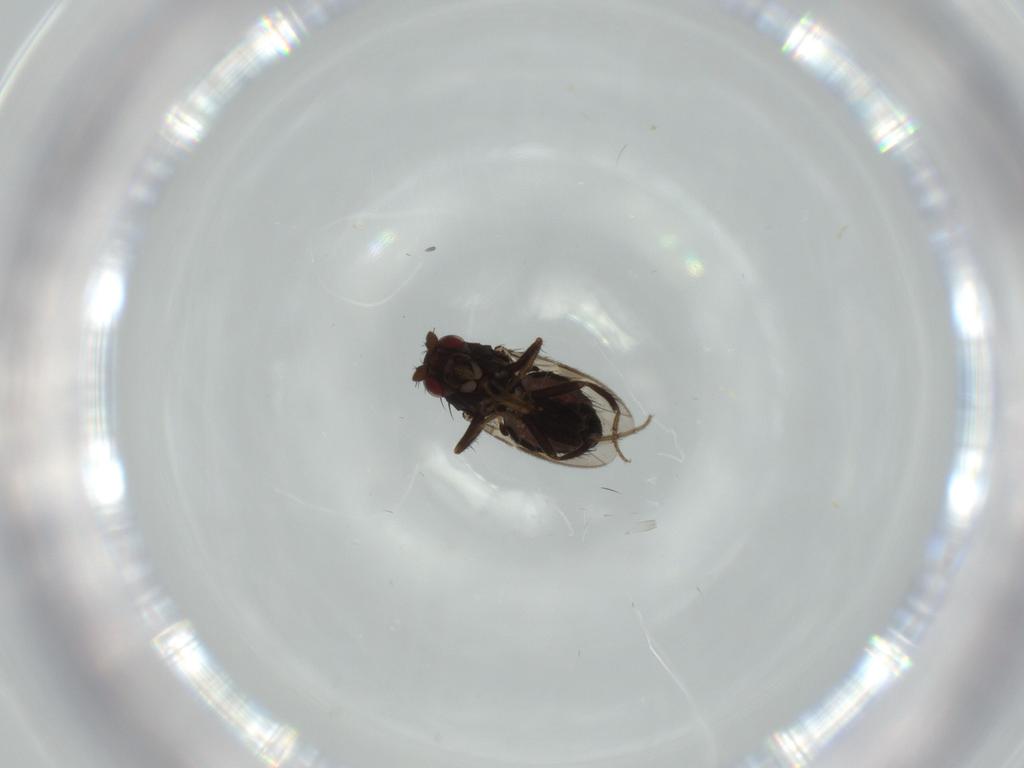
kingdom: Animalia
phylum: Arthropoda
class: Insecta
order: Diptera
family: Sphaeroceridae
